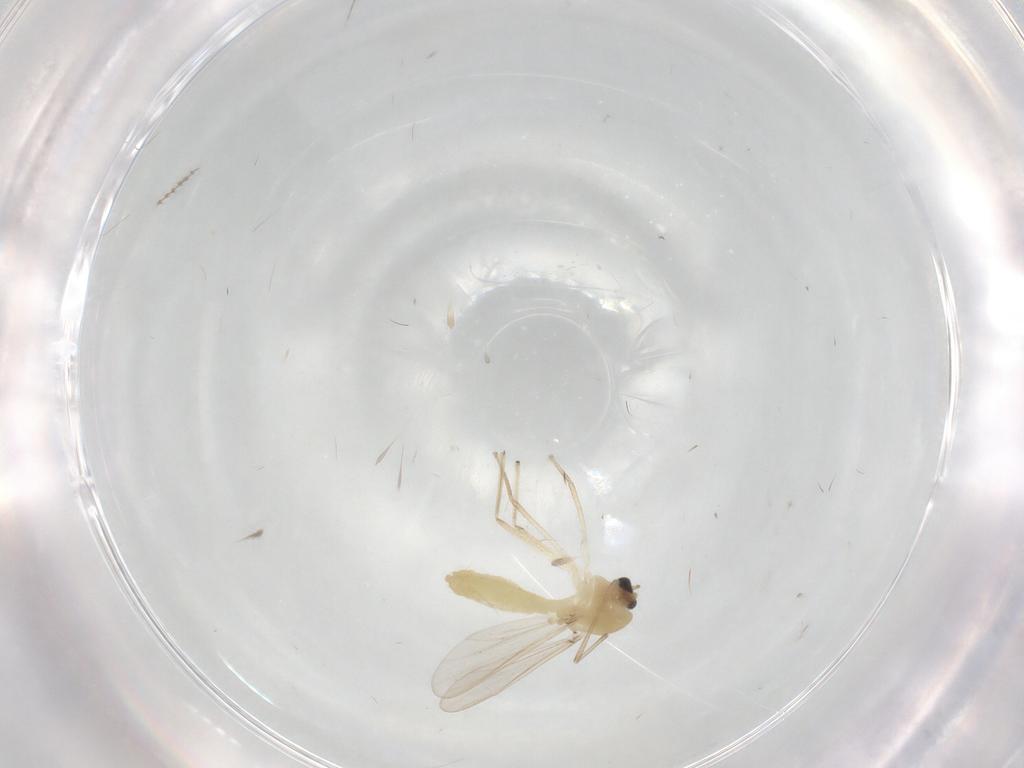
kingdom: Animalia
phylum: Arthropoda
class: Insecta
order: Diptera
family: Chironomidae
